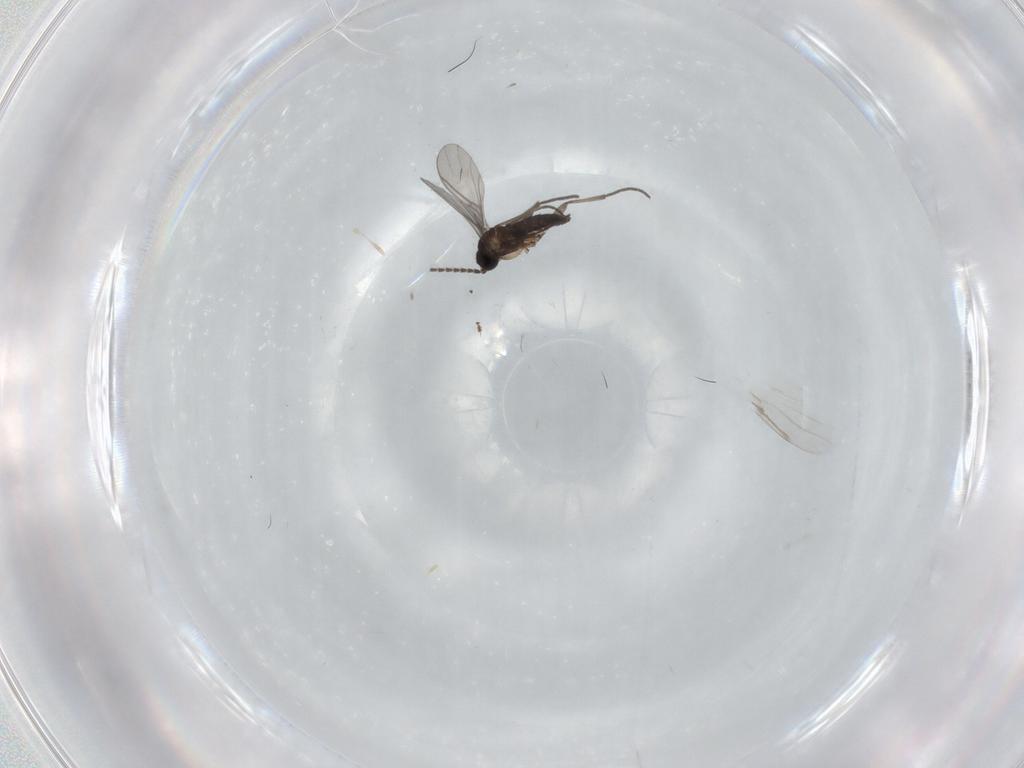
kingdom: Animalia
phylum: Arthropoda
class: Insecta
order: Diptera
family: Sciaridae
